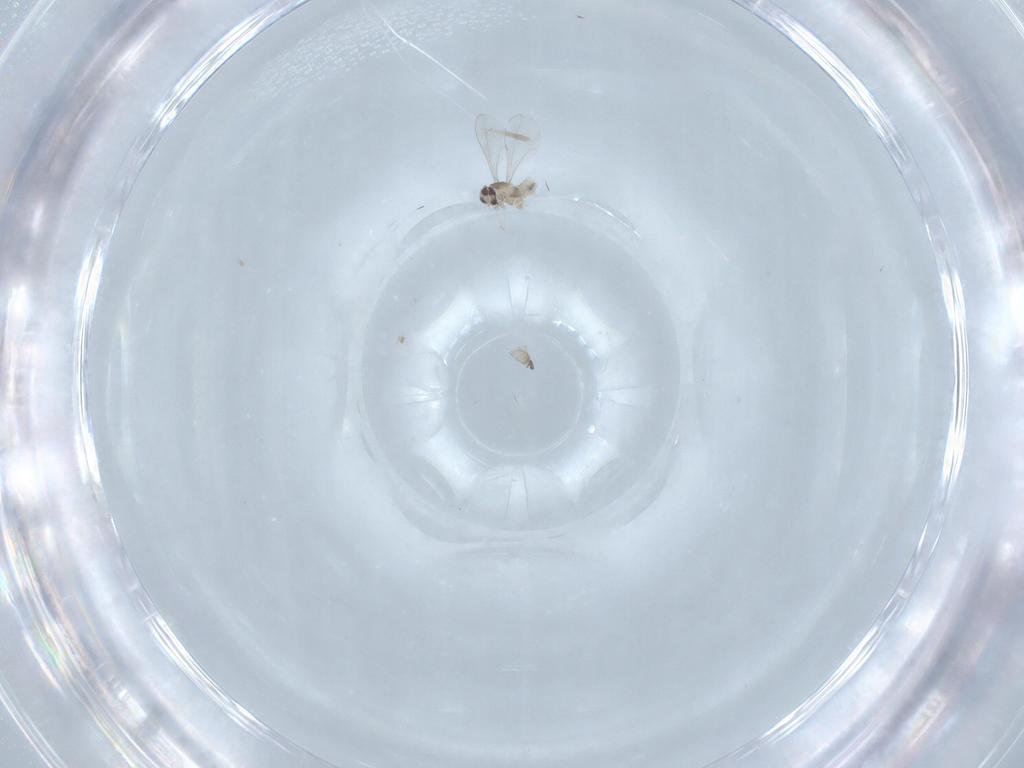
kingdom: Animalia
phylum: Arthropoda
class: Insecta
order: Diptera
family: Cecidomyiidae
